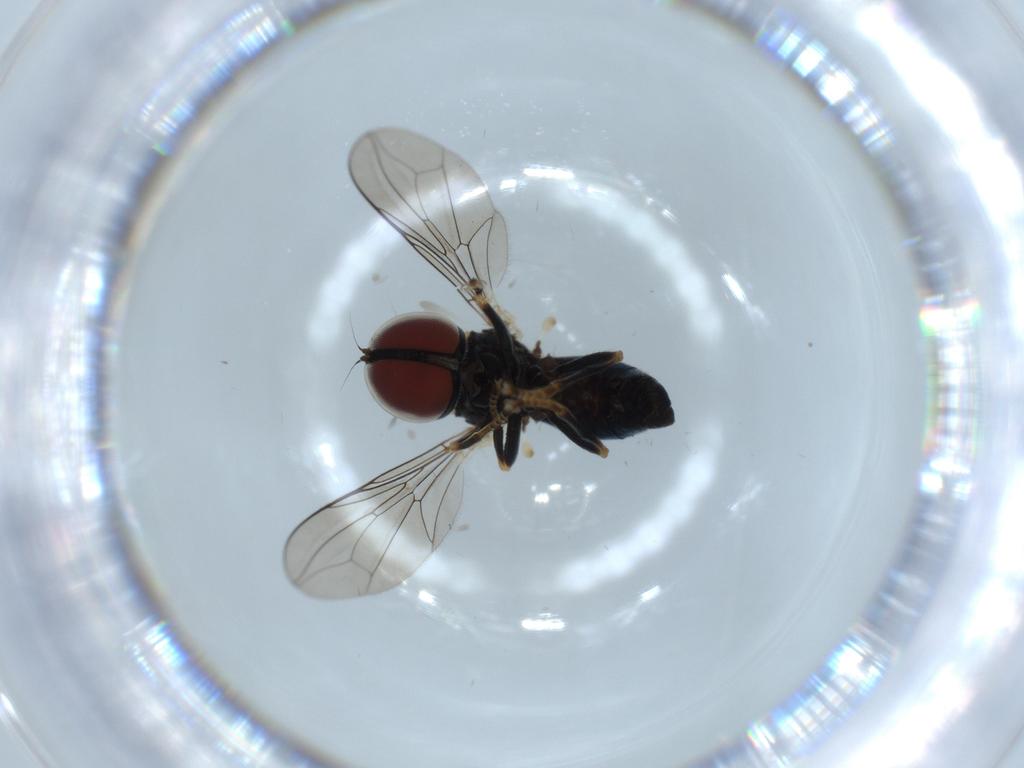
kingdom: Animalia
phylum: Arthropoda
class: Insecta
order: Diptera
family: Pipunculidae
